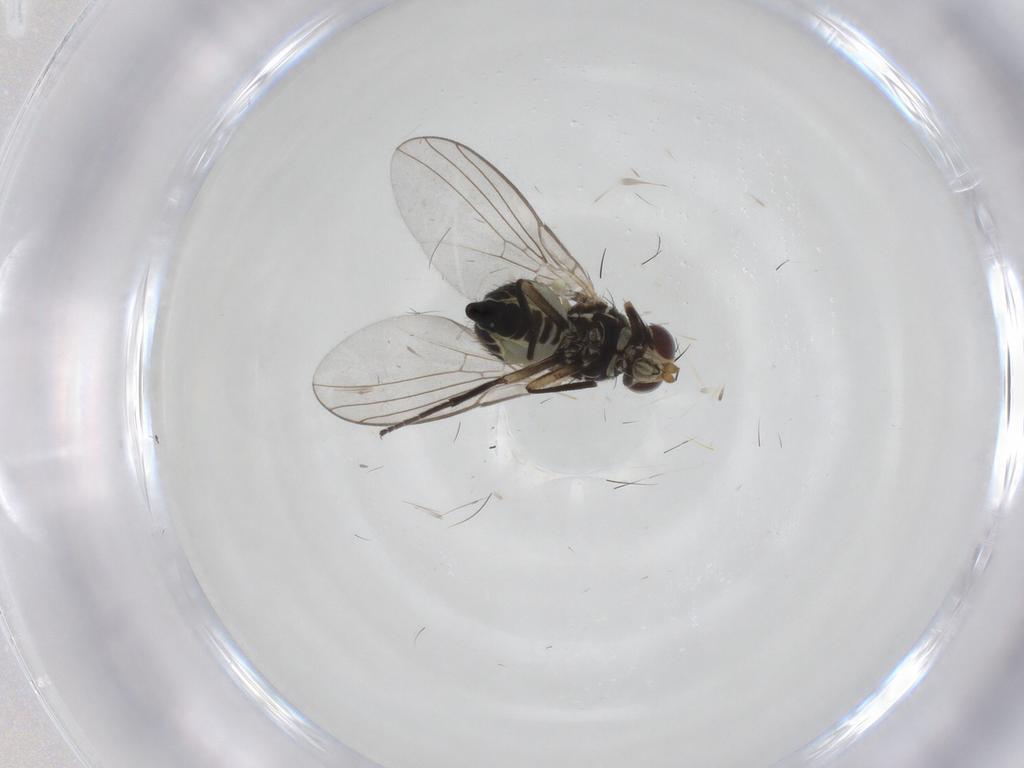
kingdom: Animalia
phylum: Arthropoda
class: Insecta
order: Diptera
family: Agromyzidae
